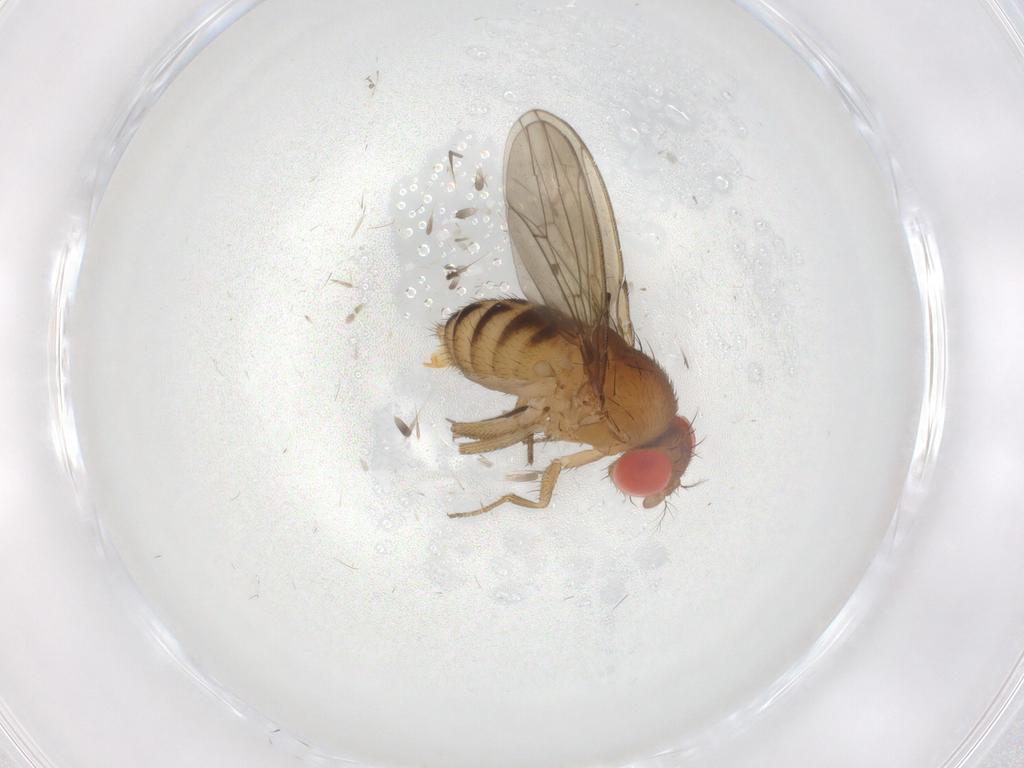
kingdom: Animalia
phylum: Arthropoda
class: Insecta
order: Diptera
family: Drosophilidae
